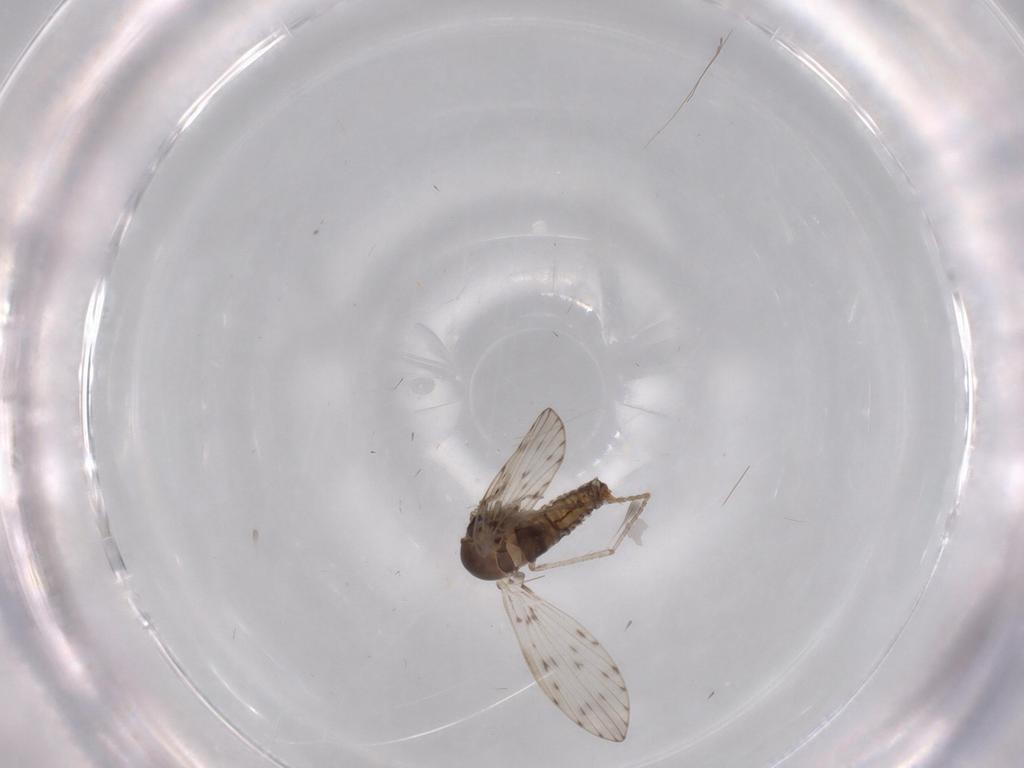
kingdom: Animalia
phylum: Arthropoda
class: Insecta
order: Diptera
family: Psychodidae
